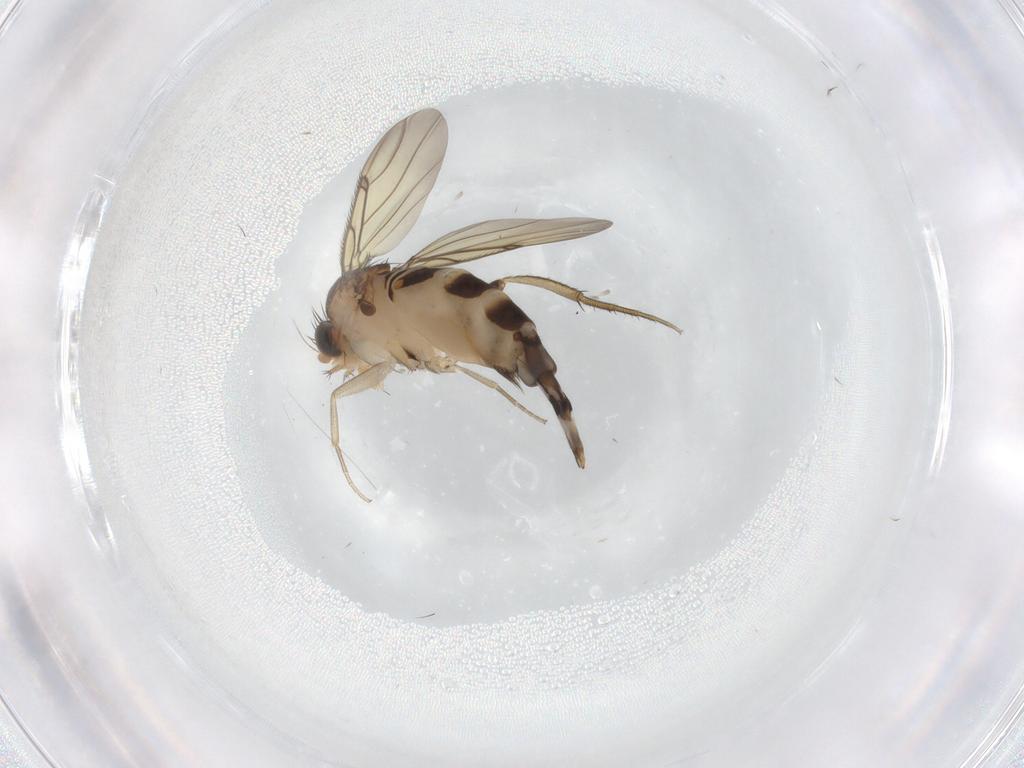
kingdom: Animalia
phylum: Arthropoda
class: Insecta
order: Diptera
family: Phoridae
